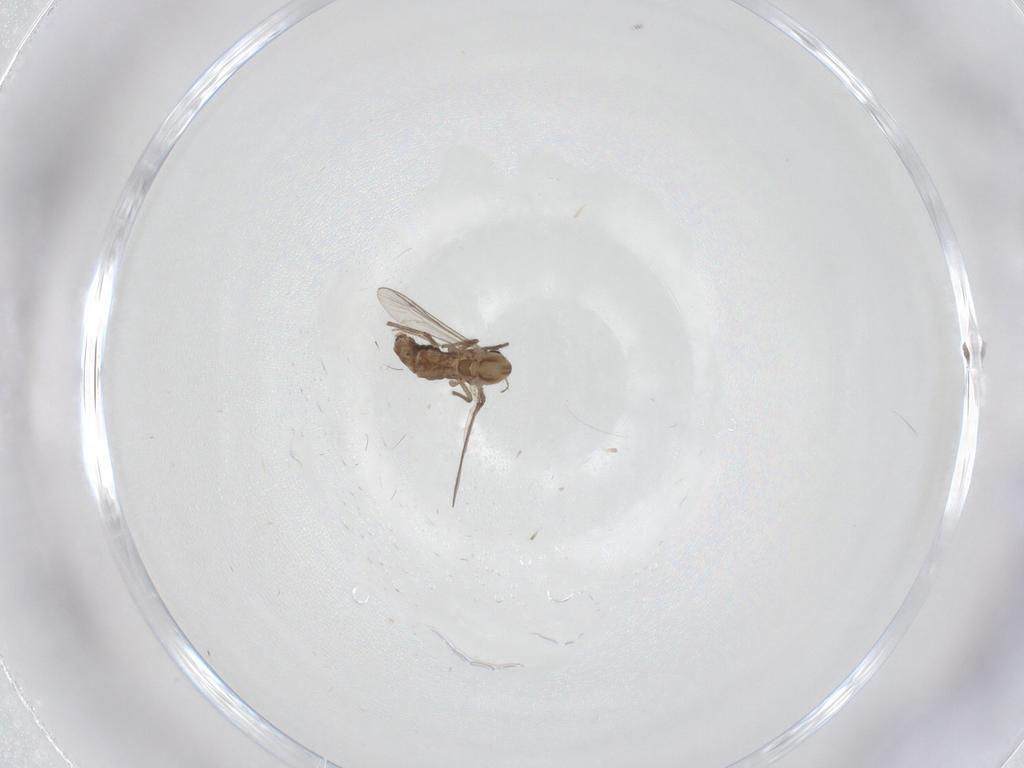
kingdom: Animalia
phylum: Arthropoda
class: Insecta
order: Diptera
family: Chironomidae
